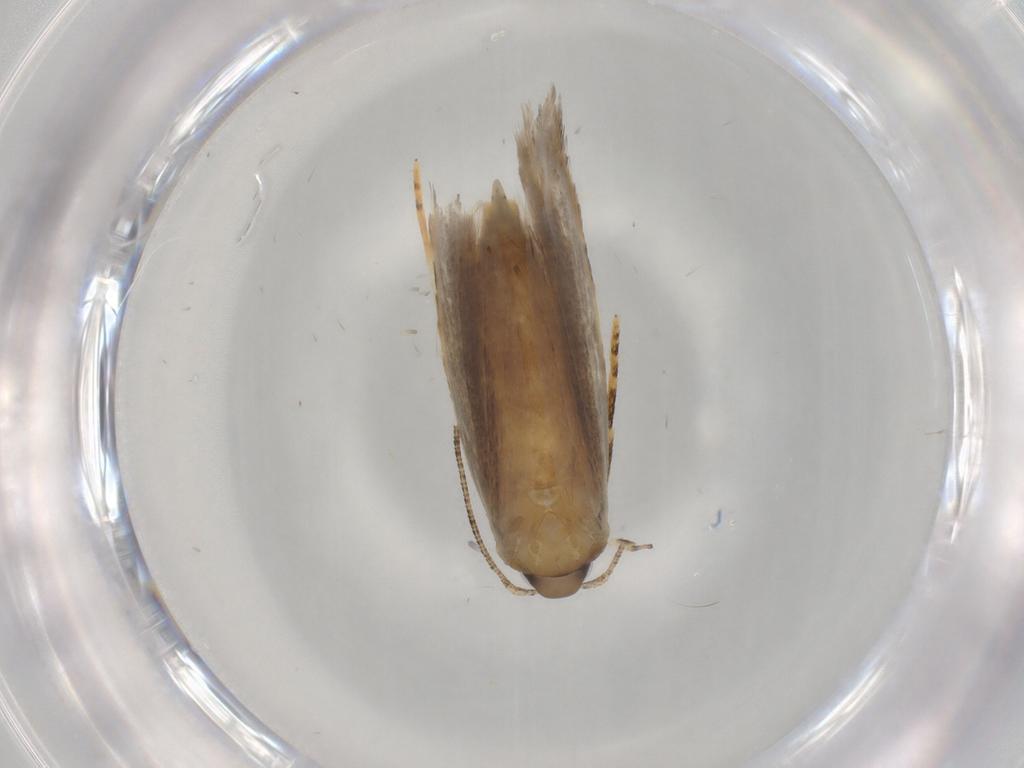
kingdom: Animalia
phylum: Arthropoda
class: Insecta
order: Lepidoptera
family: Autostichidae
